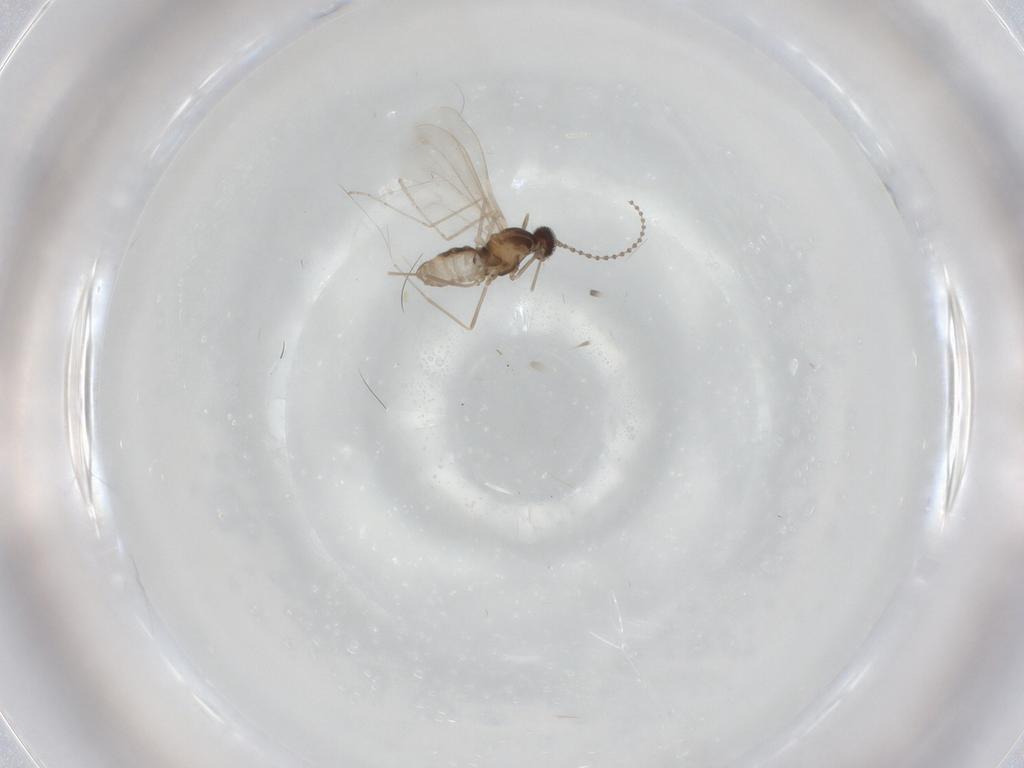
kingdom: Animalia
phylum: Arthropoda
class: Insecta
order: Diptera
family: Cecidomyiidae
